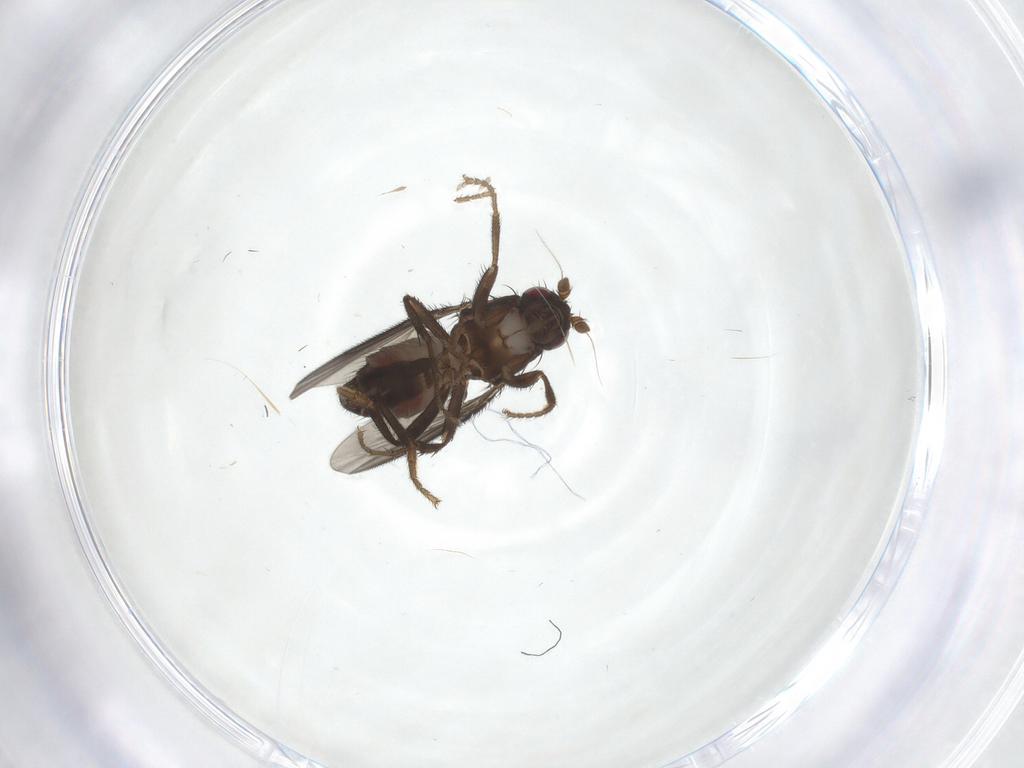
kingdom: Animalia
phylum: Arthropoda
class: Insecta
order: Diptera
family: Sphaeroceridae
